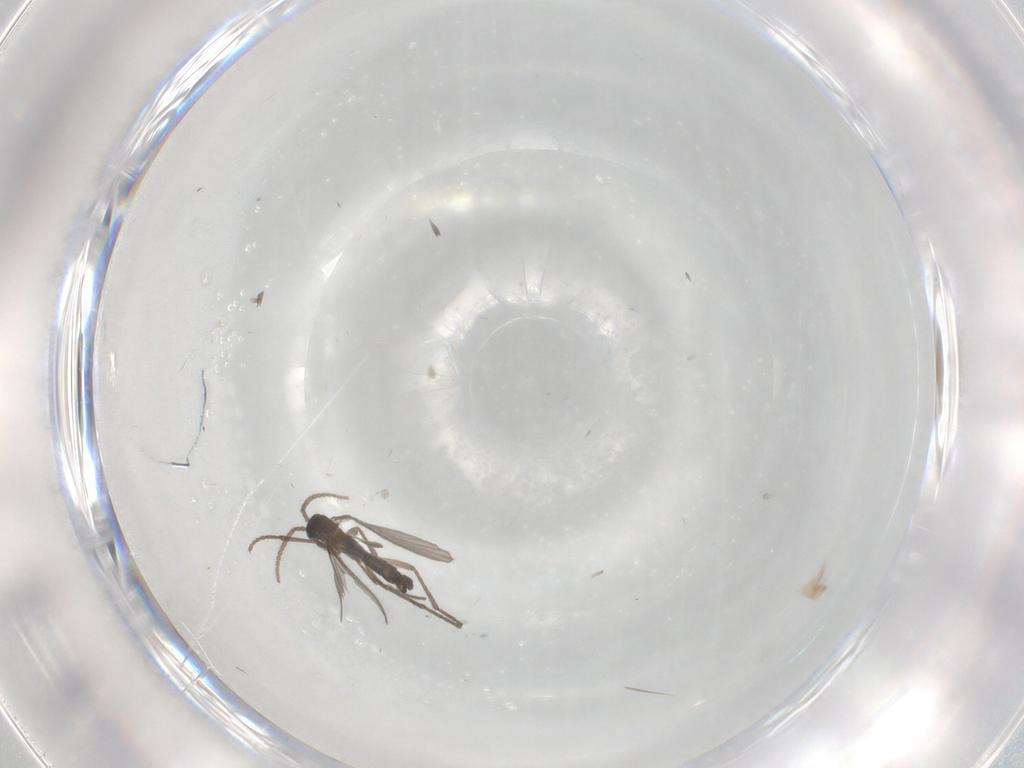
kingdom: Animalia
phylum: Arthropoda
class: Insecta
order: Diptera
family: Sciaridae
